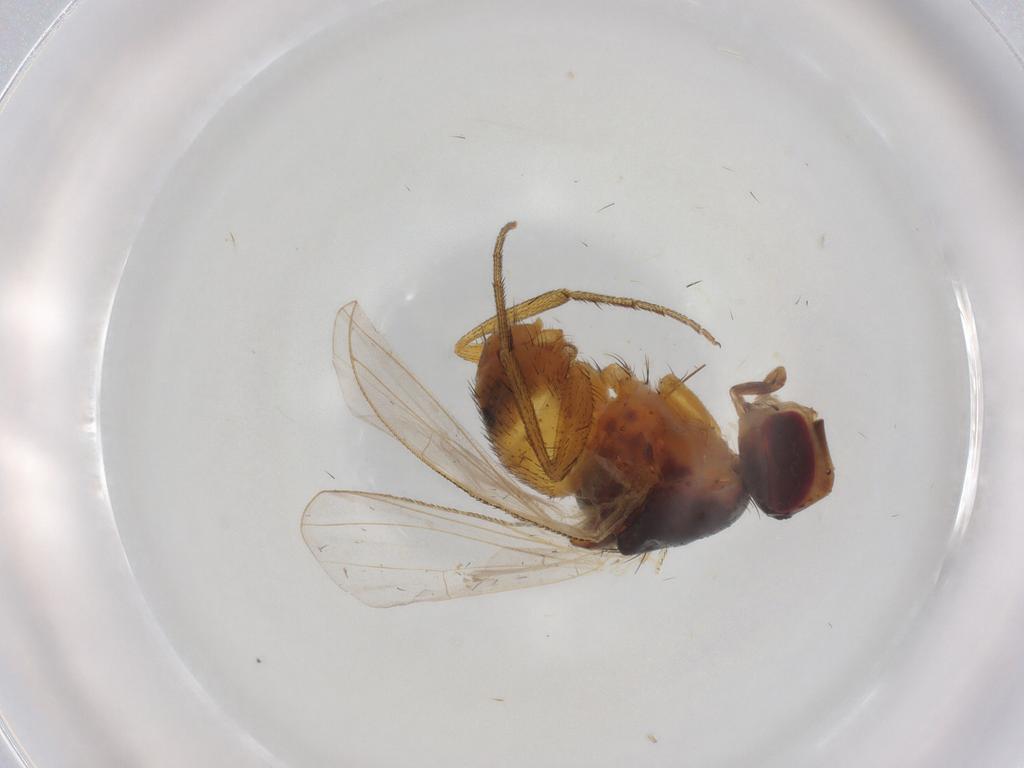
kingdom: Animalia
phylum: Arthropoda
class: Insecta
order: Diptera
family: Muscidae
